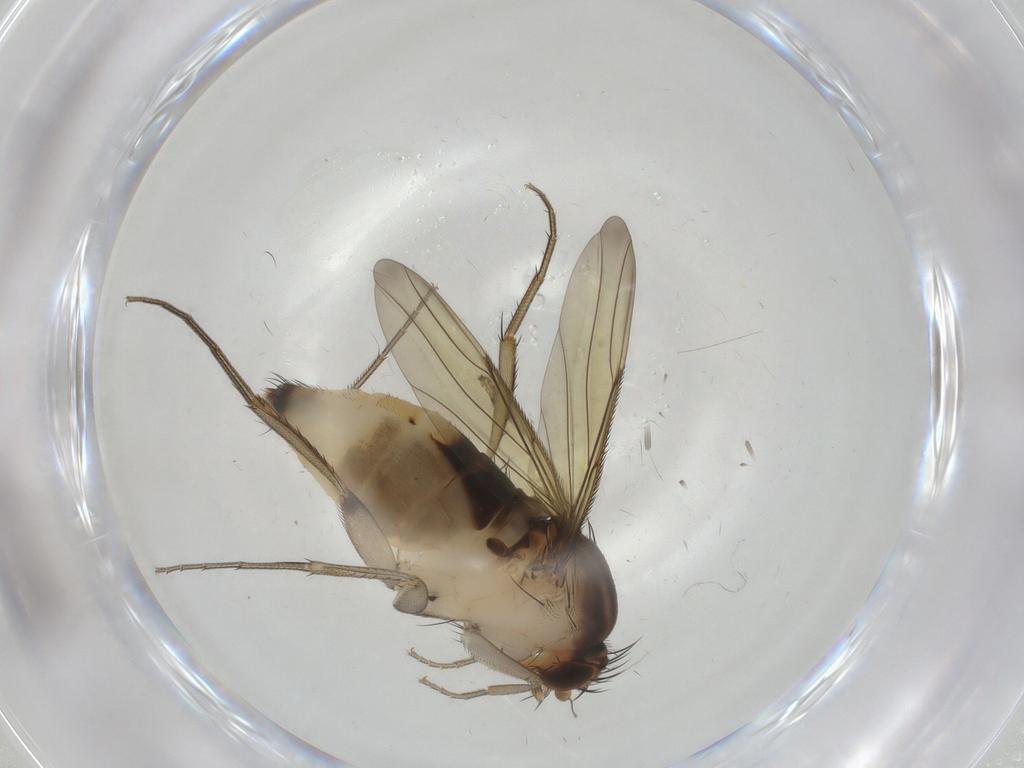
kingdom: Animalia
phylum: Arthropoda
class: Insecta
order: Diptera
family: Phoridae
